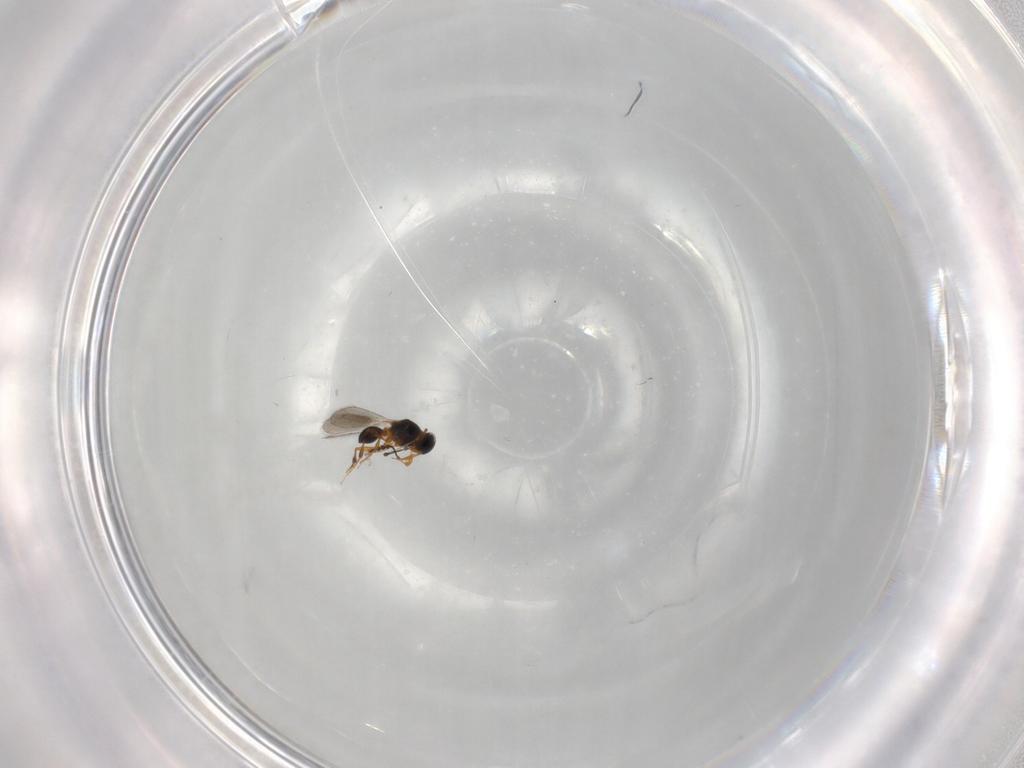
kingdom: Animalia
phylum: Arthropoda
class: Insecta
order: Hymenoptera
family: Platygastridae
